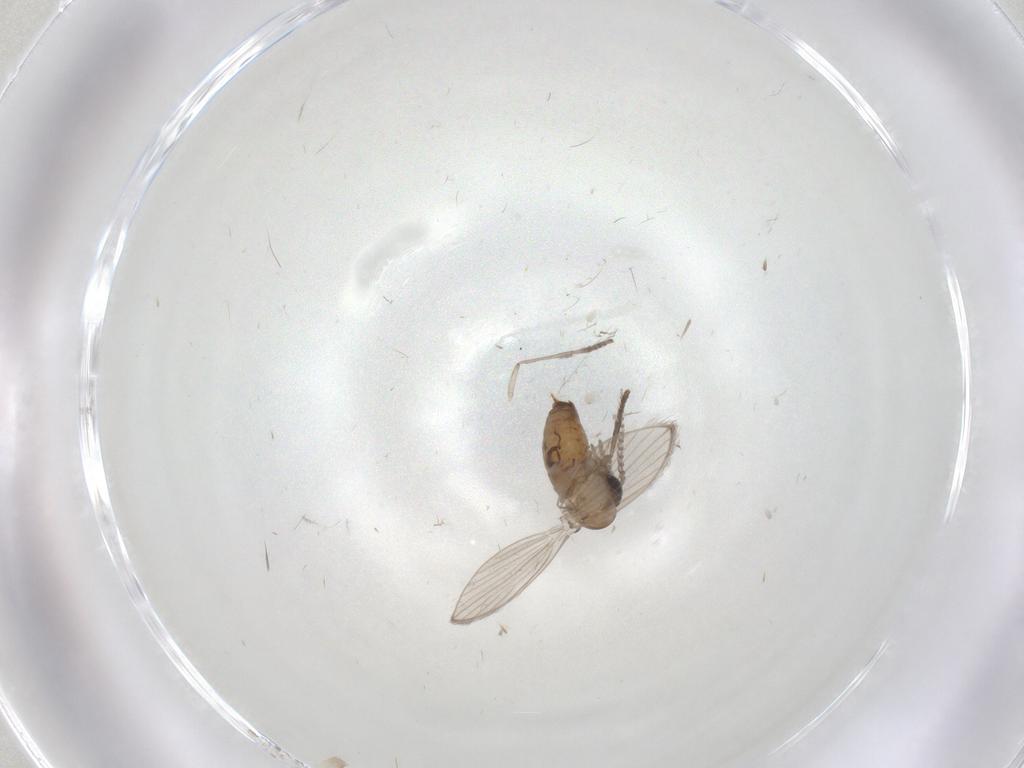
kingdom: Animalia
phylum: Arthropoda
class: Insecta
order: Diptera
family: Psychodidae
